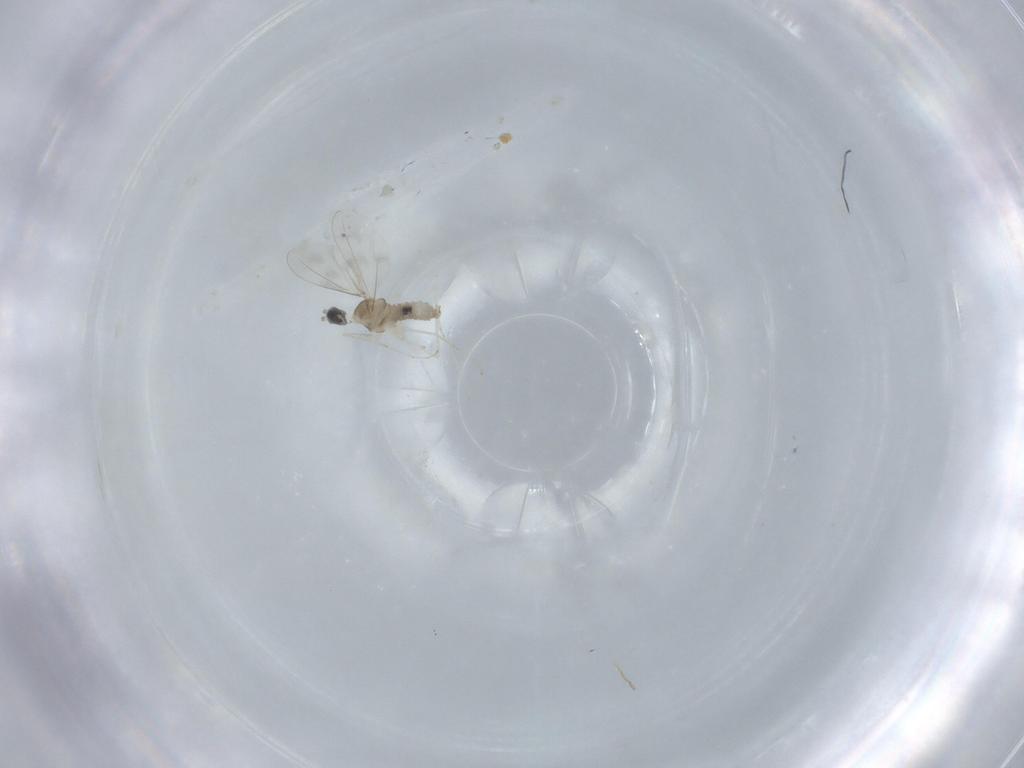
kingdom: Animalia
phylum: Arthropoda
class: Insecta
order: Diptera
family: Cecidomyiidae
